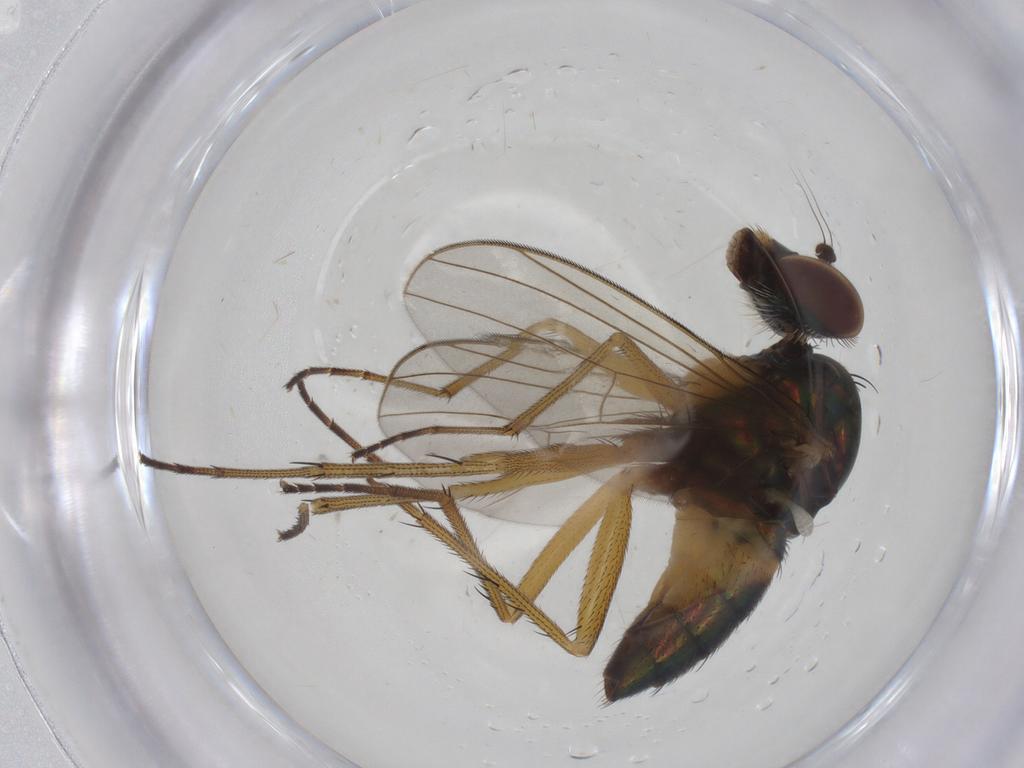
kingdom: Animalia
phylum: Arthropoda
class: Insecta
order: Diptera
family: Dolichopodidae
